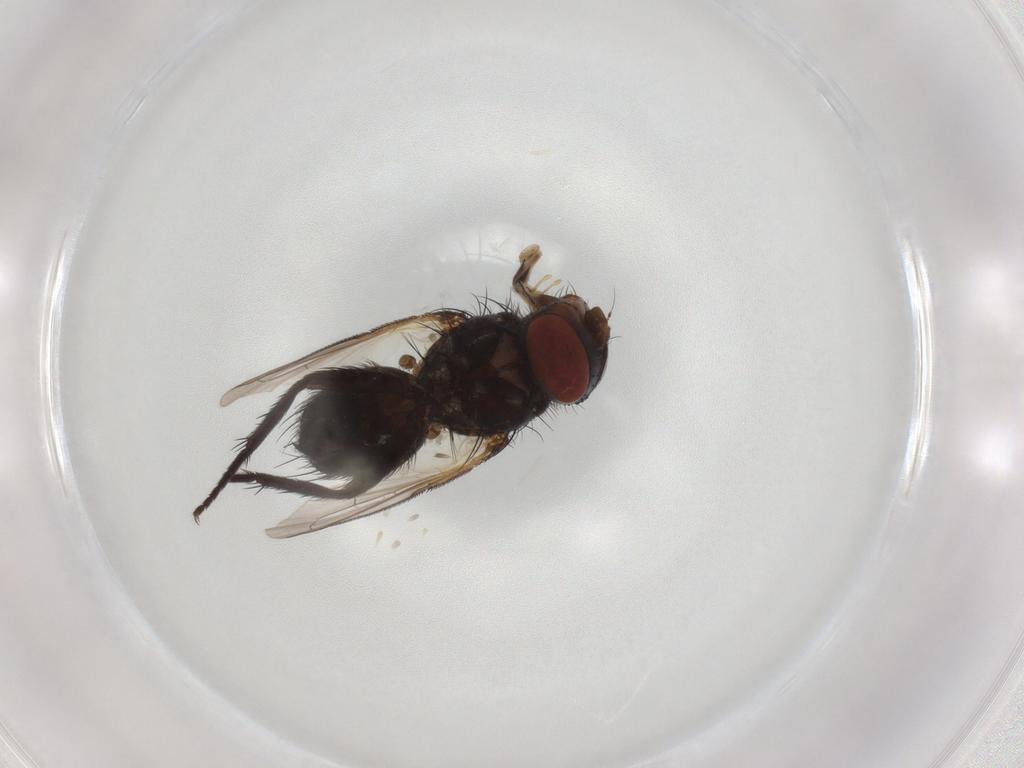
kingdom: Animalia
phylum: Arthropoda
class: Insecta
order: Diptera
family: Tachinidae
